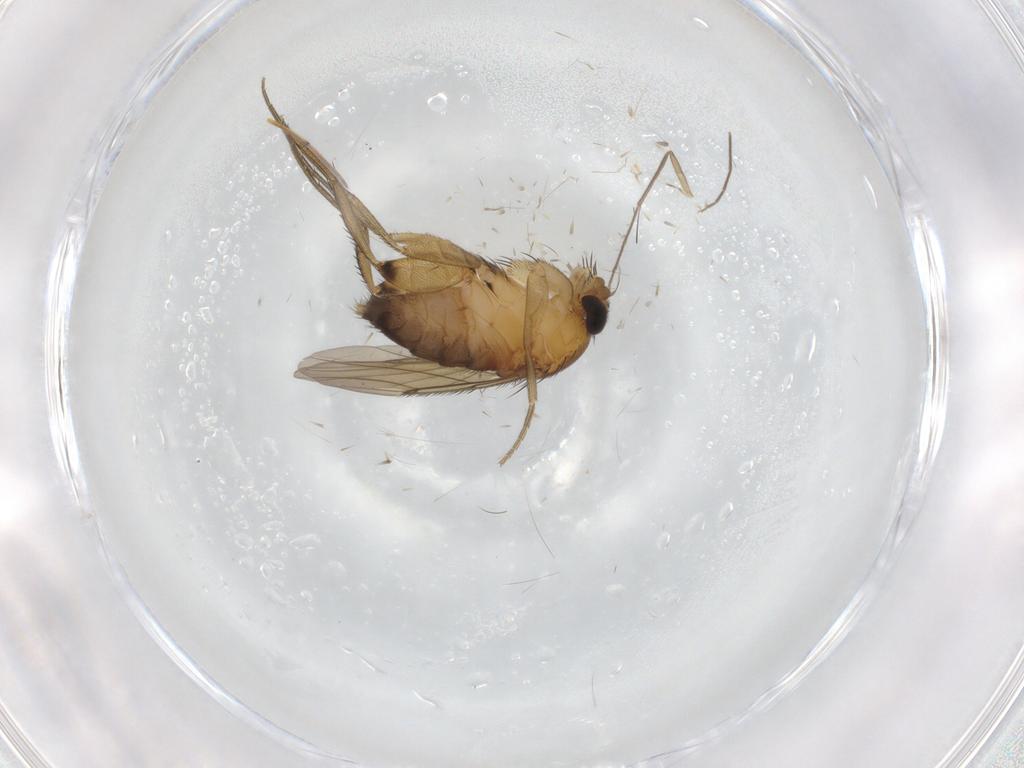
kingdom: Animalia
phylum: Arthropoda
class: Insecta
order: Diptera
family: Phoridae
